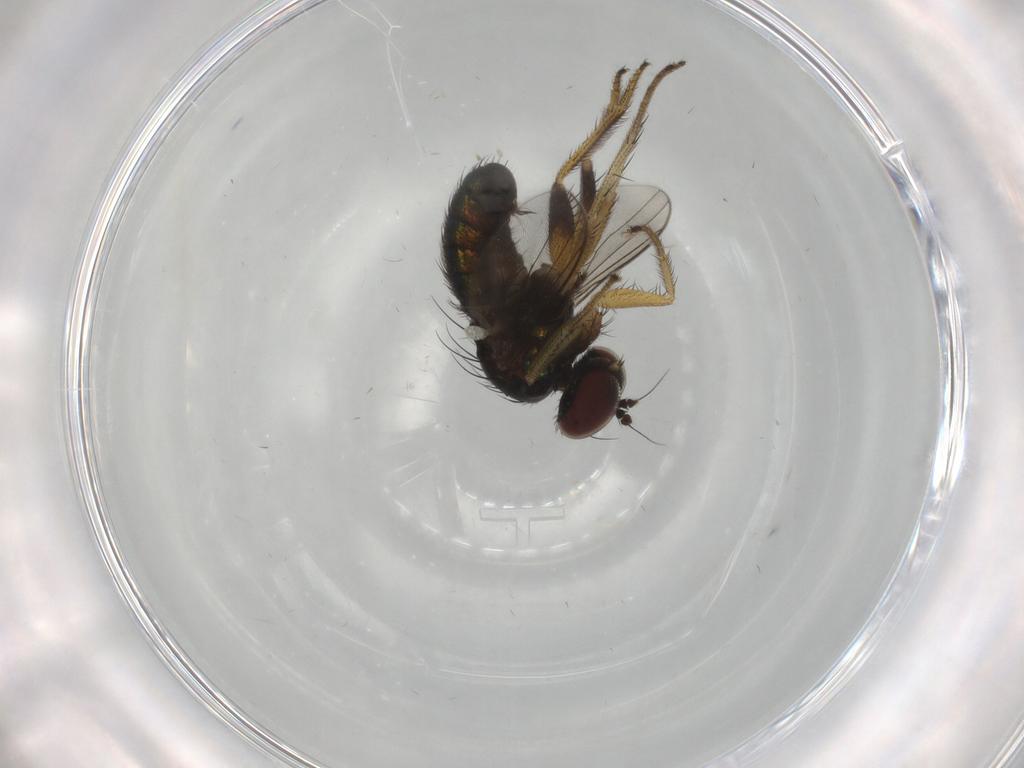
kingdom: Animalia
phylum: Arthropoda
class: Insecta
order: Diptera
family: Dolichopodidae
